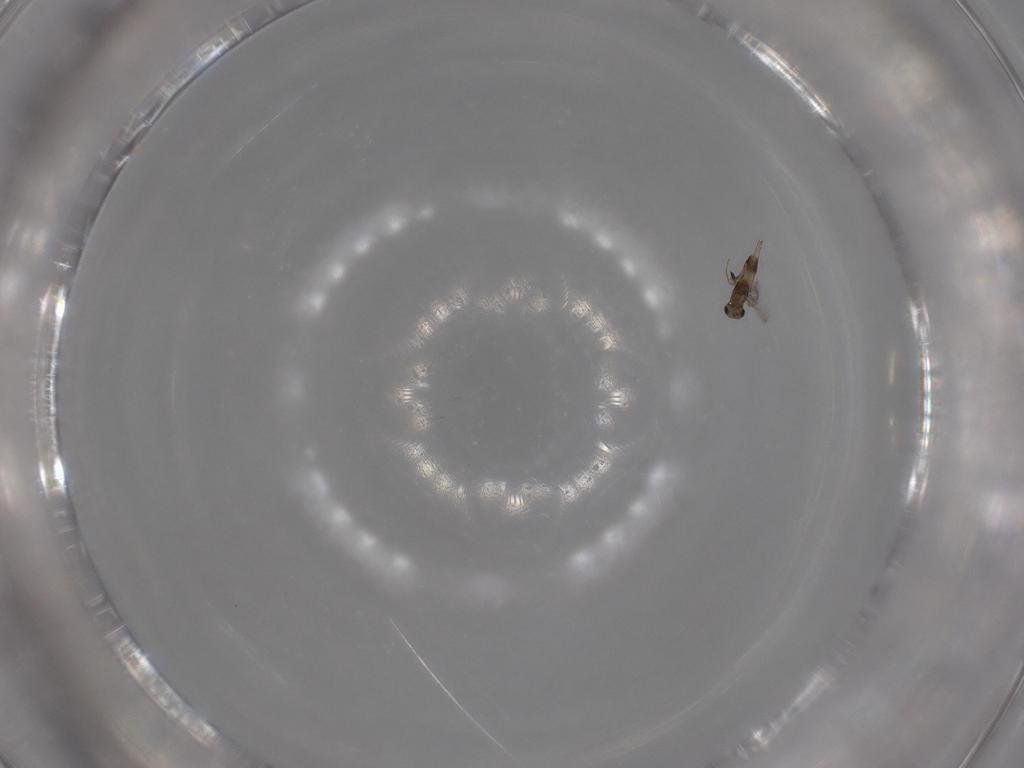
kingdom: Animalia
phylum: Arthropoda
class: Insecta
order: Hymenoptera
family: Mymaridae
